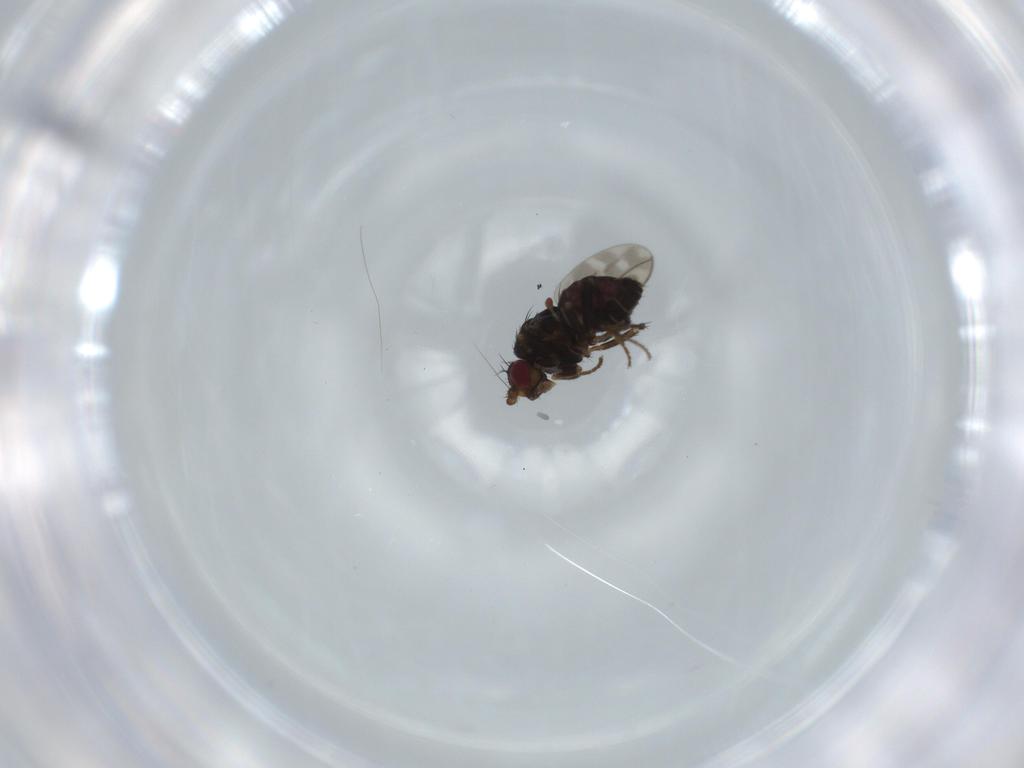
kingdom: Animalia
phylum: Arthropoda
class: Insecta
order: Diptera
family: Sphaeroceridae
